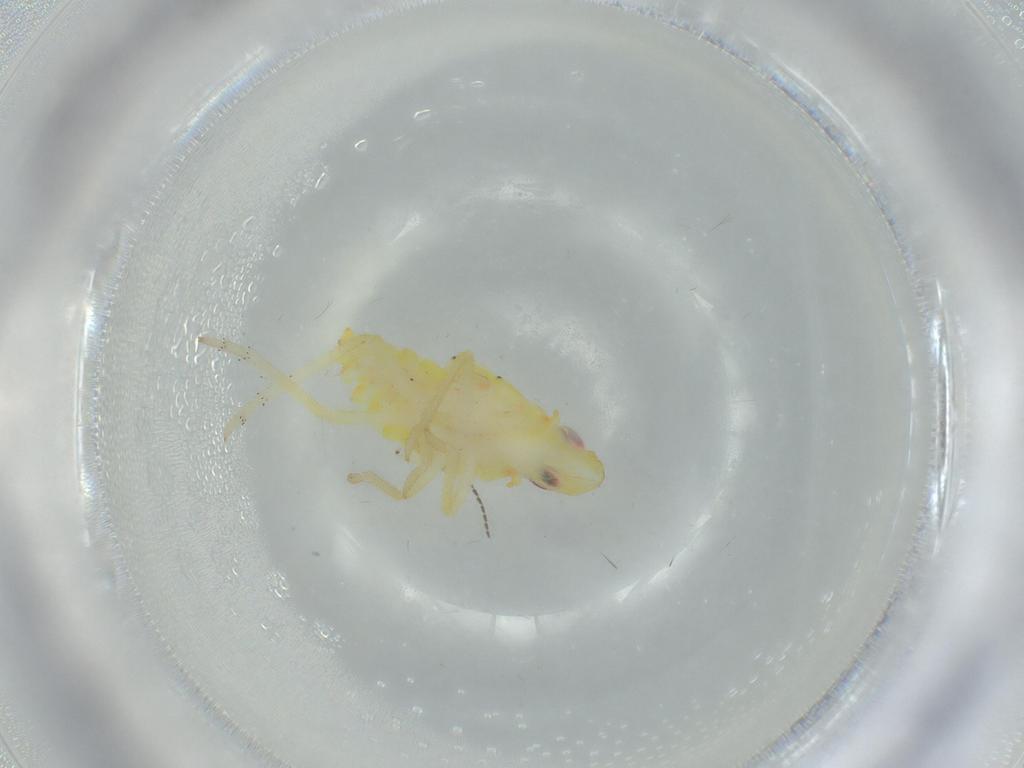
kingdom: Animalia
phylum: Arthropoda
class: Insecta
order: Hemiptera
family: Tropiduchidae
